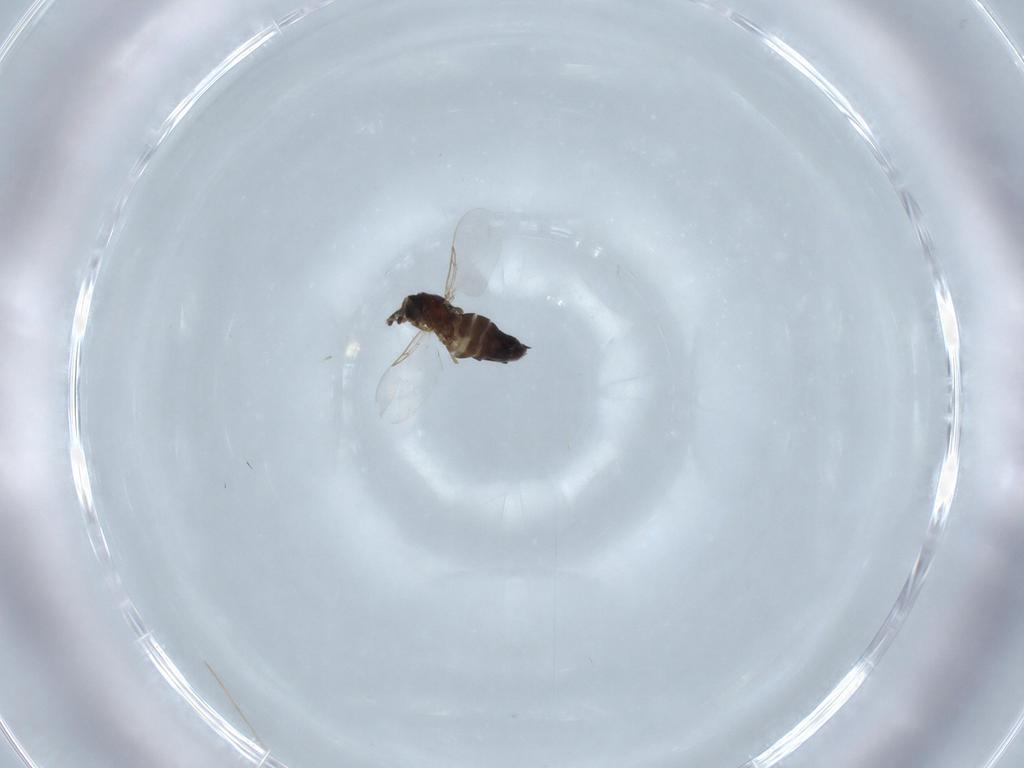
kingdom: Animalia
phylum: Arthropoda
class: Insecta
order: Diptera
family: Scatopsidae
